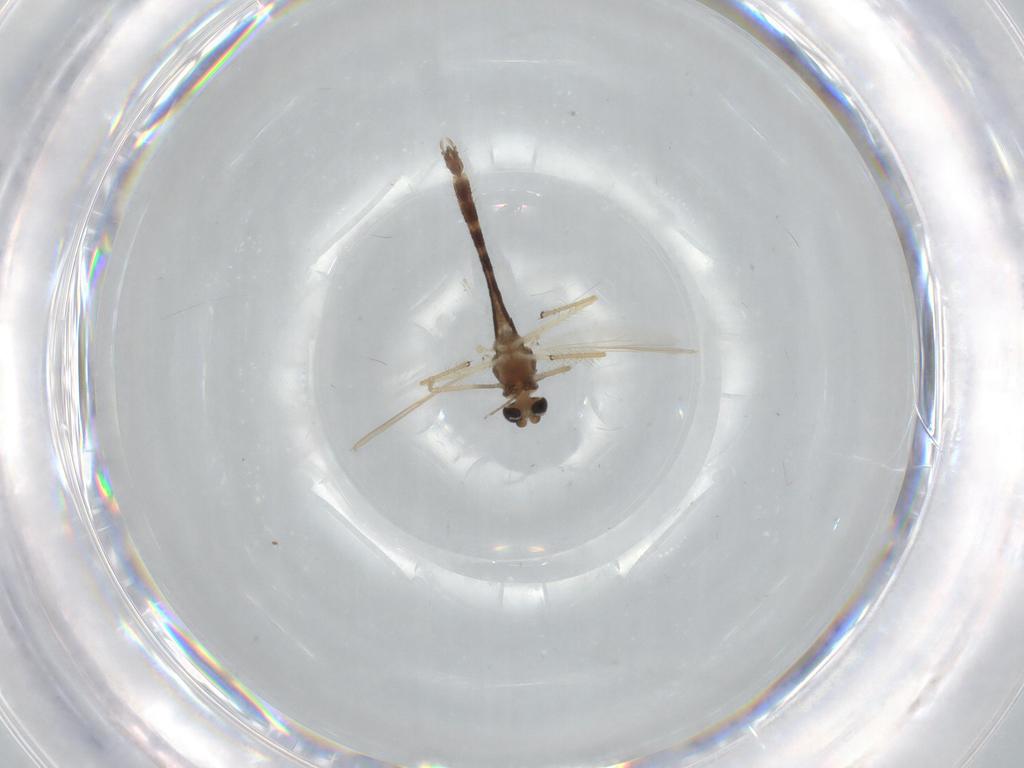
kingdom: Animalia
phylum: Arthropoda
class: Insecta
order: Diptera
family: Chironomidae
